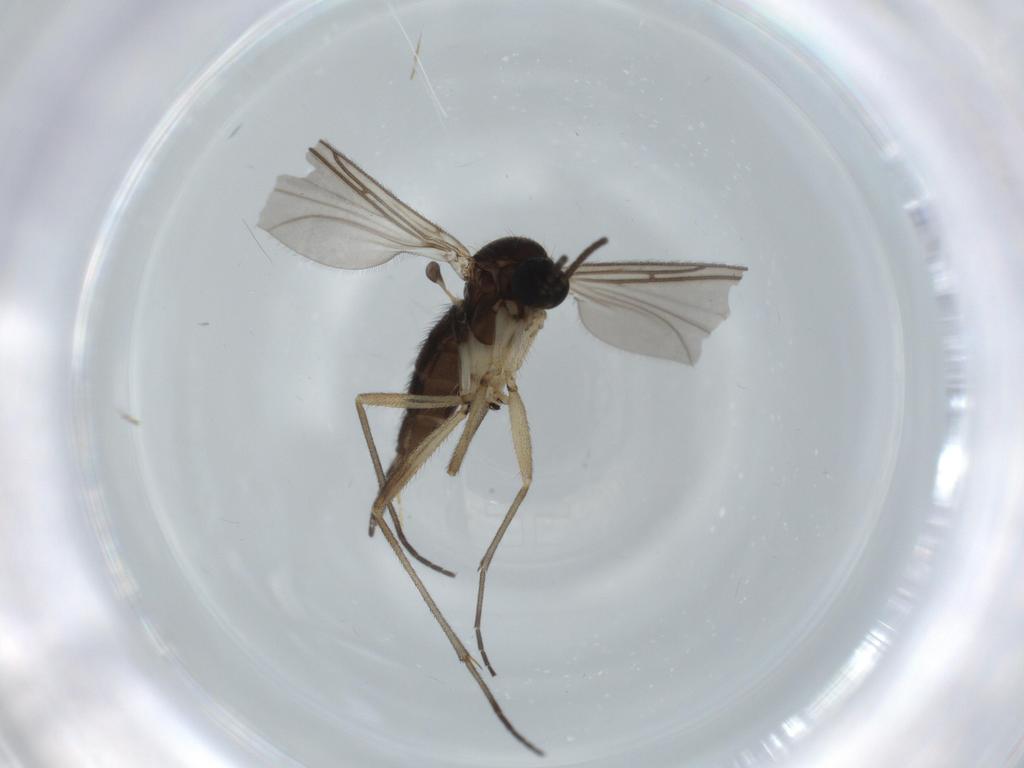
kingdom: Animalia
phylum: Arthropoda
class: Insecta
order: Diptera
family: Sciaridae
